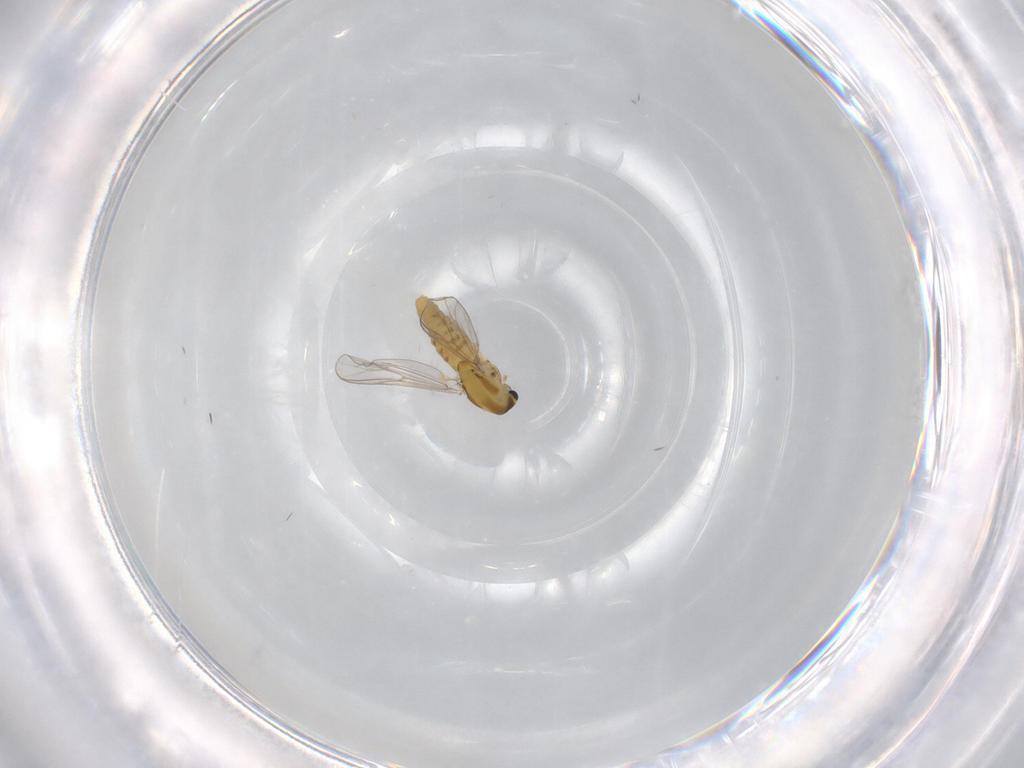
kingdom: Animalia
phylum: Arthropoda
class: Insecta
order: Diptera
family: Chironomidae
